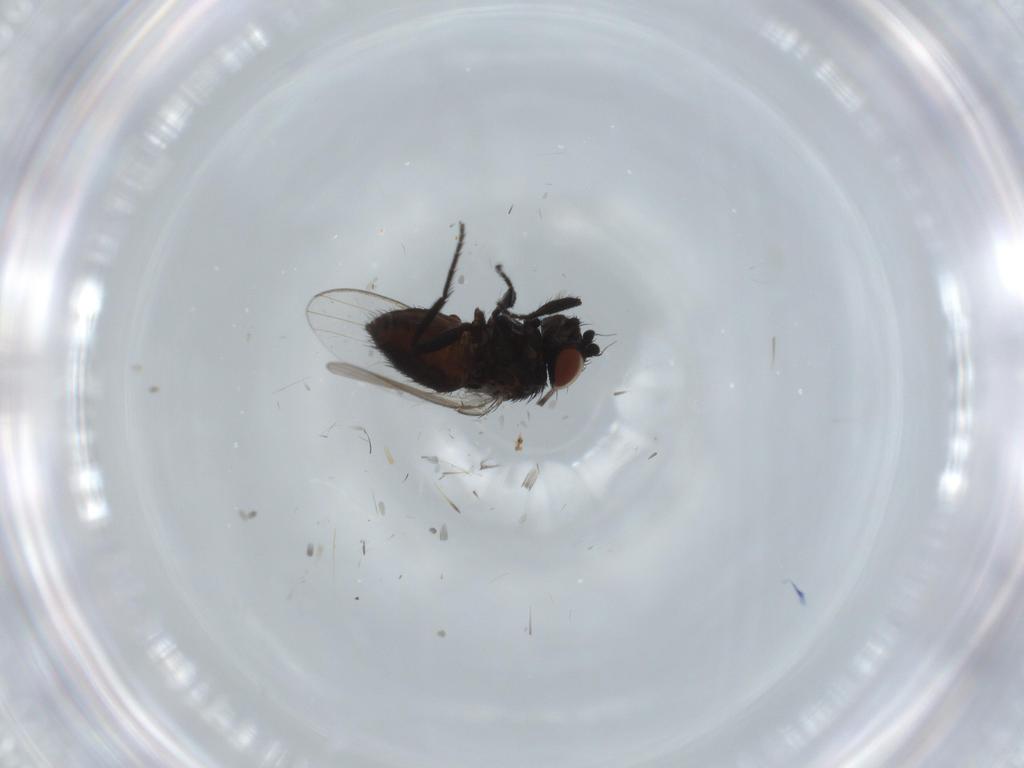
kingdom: Animalia
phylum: Arthropoda
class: Insecta
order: Diptera
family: Phoridae
